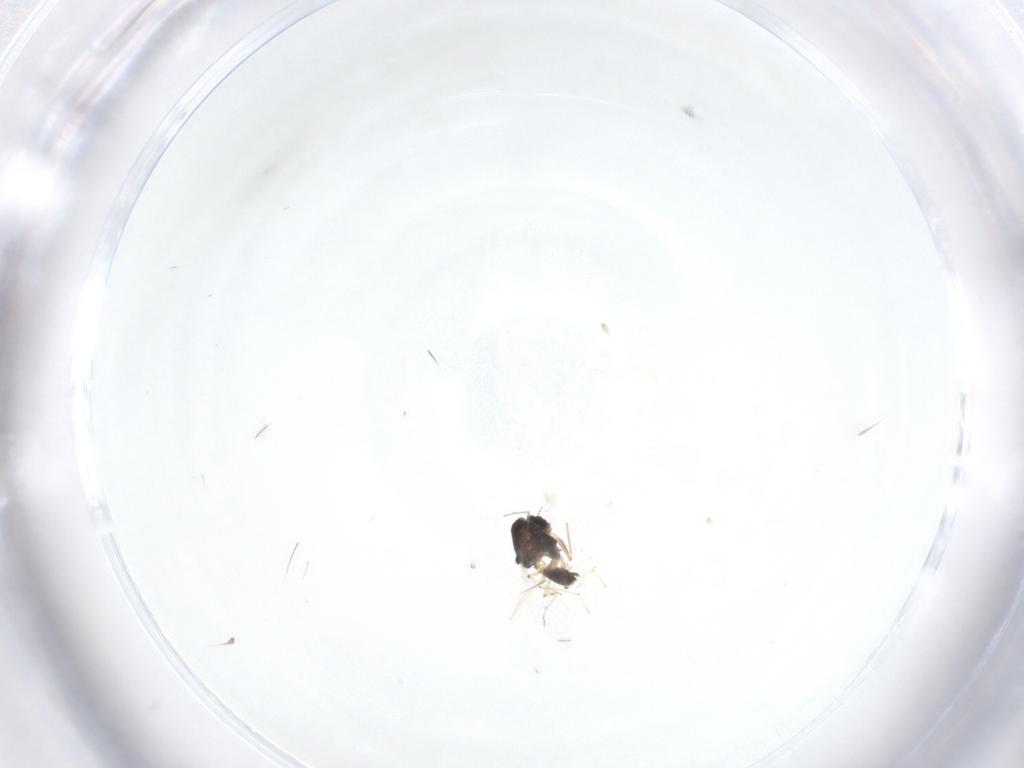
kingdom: Animalia
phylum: Arthropoda
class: Insecta
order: Diptera
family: Chironomidae
